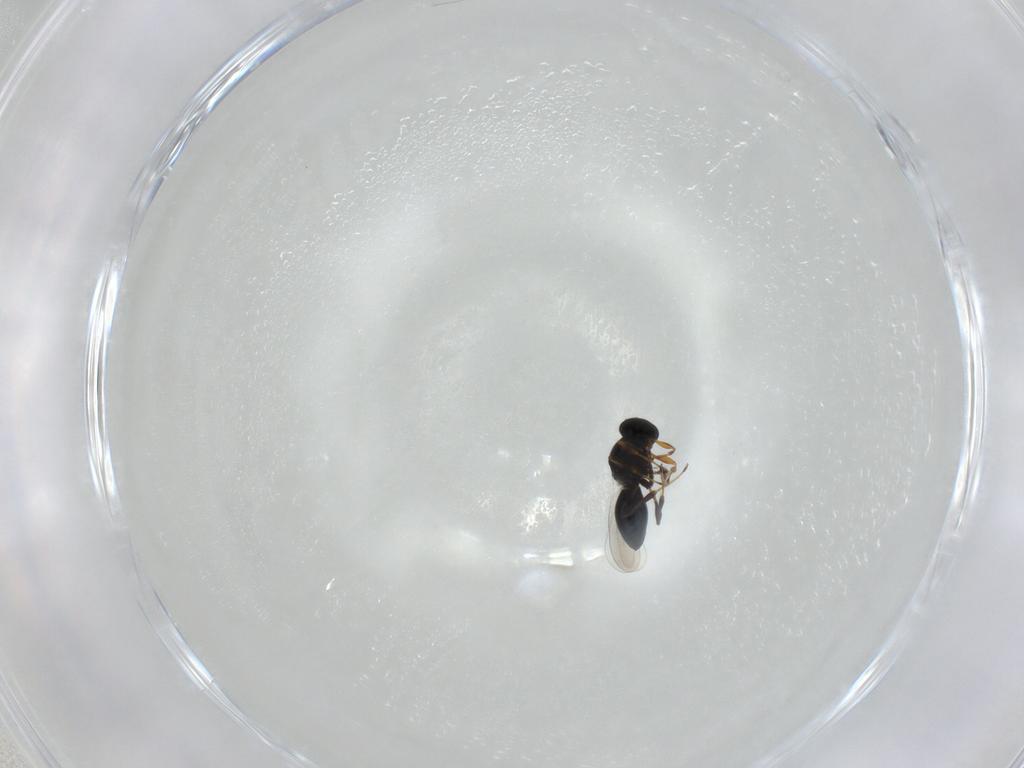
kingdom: Animalia
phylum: Arthropoda
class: Insecta
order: Hymenoptera
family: Platygastridae
